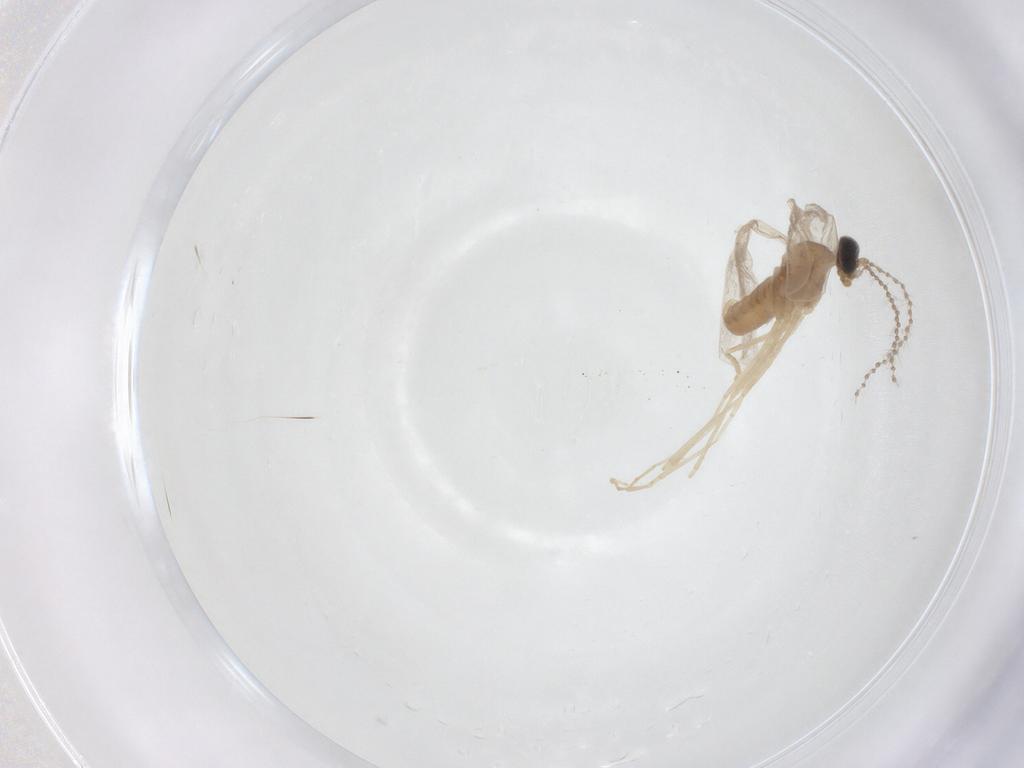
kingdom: Animalia
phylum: Arthropoda
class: Insecta
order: Diptera
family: Cecidomyiidae
